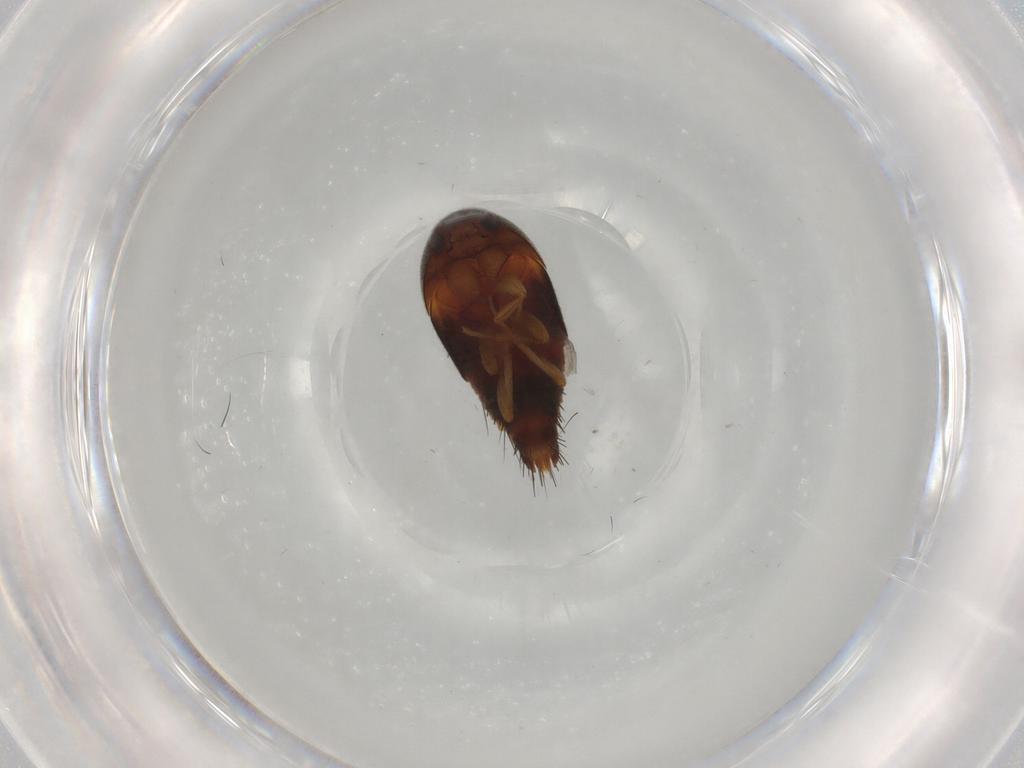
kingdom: Animalia
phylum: Arthropoda
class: Insecta
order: Coleoptera
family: Staphylinidae
